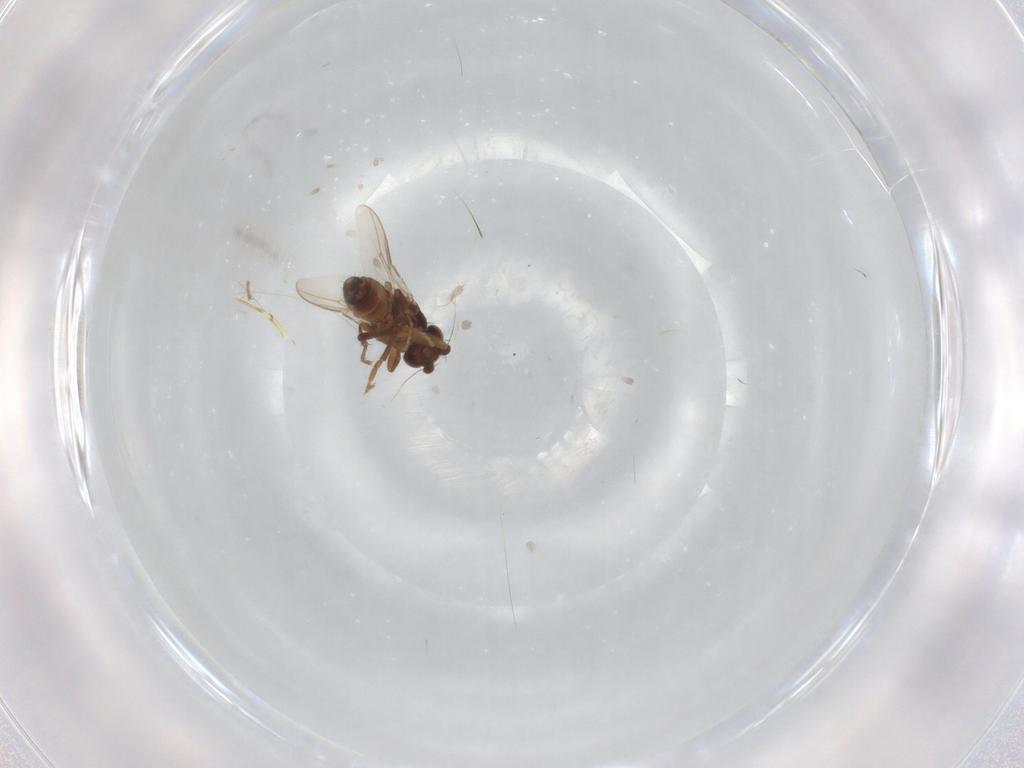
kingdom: Animalia
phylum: Arthropoda
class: Insecta
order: Diptera
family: Sphaeroceridae
